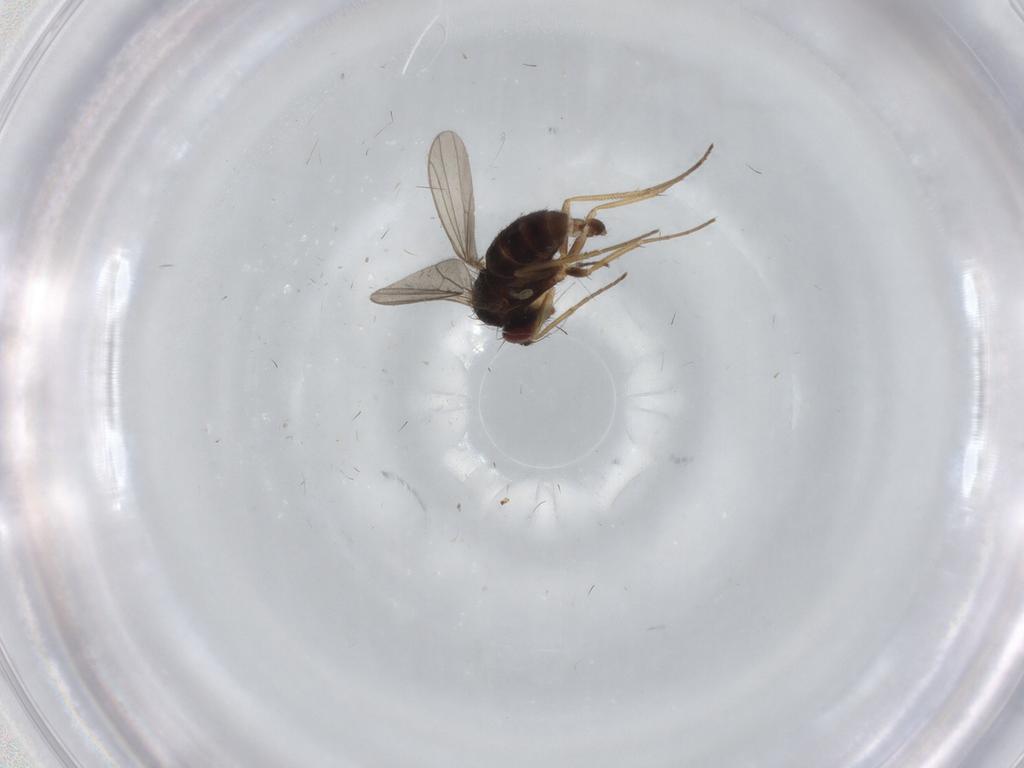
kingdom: Animalia
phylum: Arthropoda
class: Insecta
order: Diptera
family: Dolichopodidae
